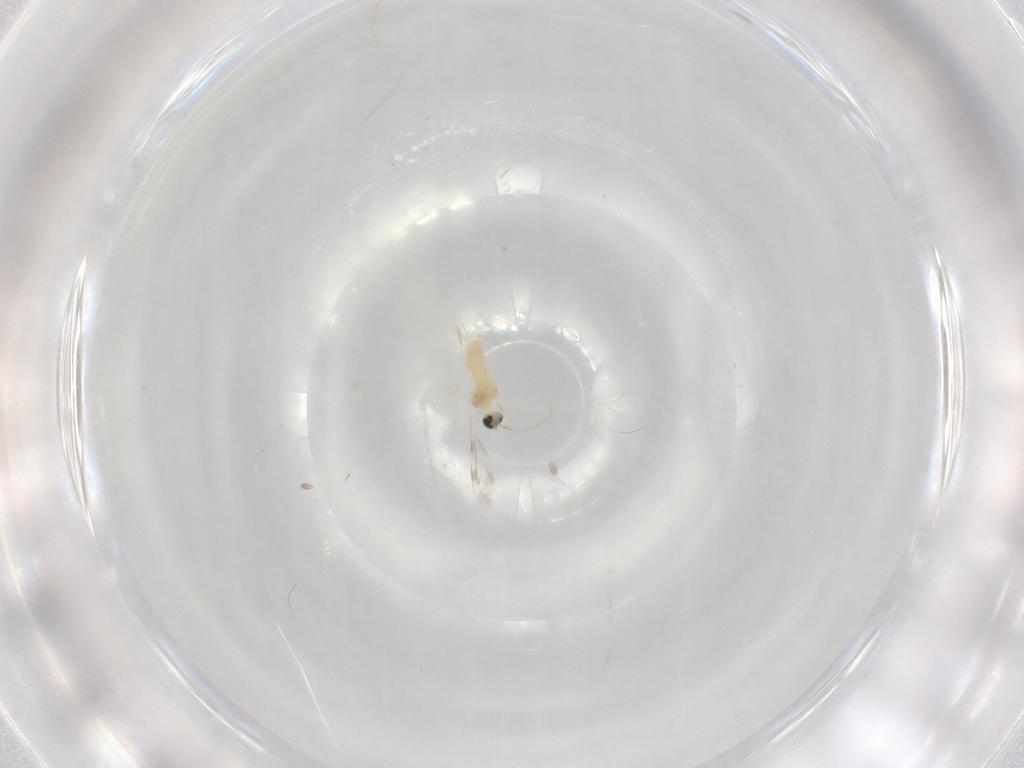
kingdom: Animalia
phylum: Arthropoda
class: Insecta
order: Diptera
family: Cecidomyiidae
